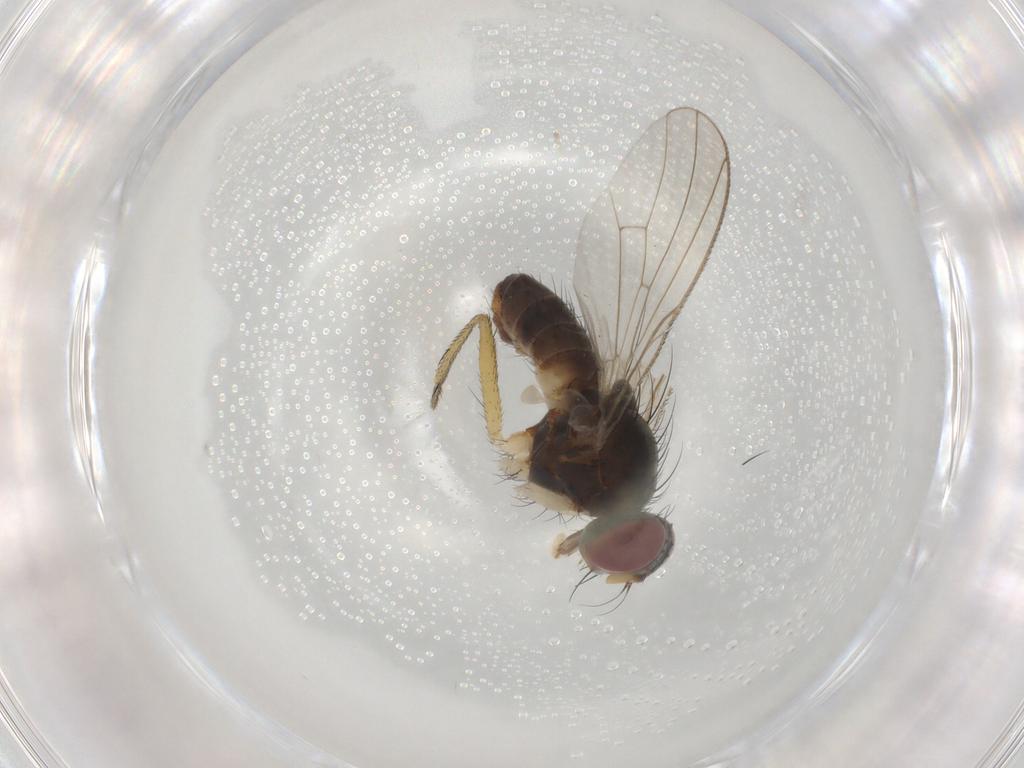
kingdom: Animalia
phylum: Arthropoda
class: Insecta
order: Diptera
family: Muscidae
